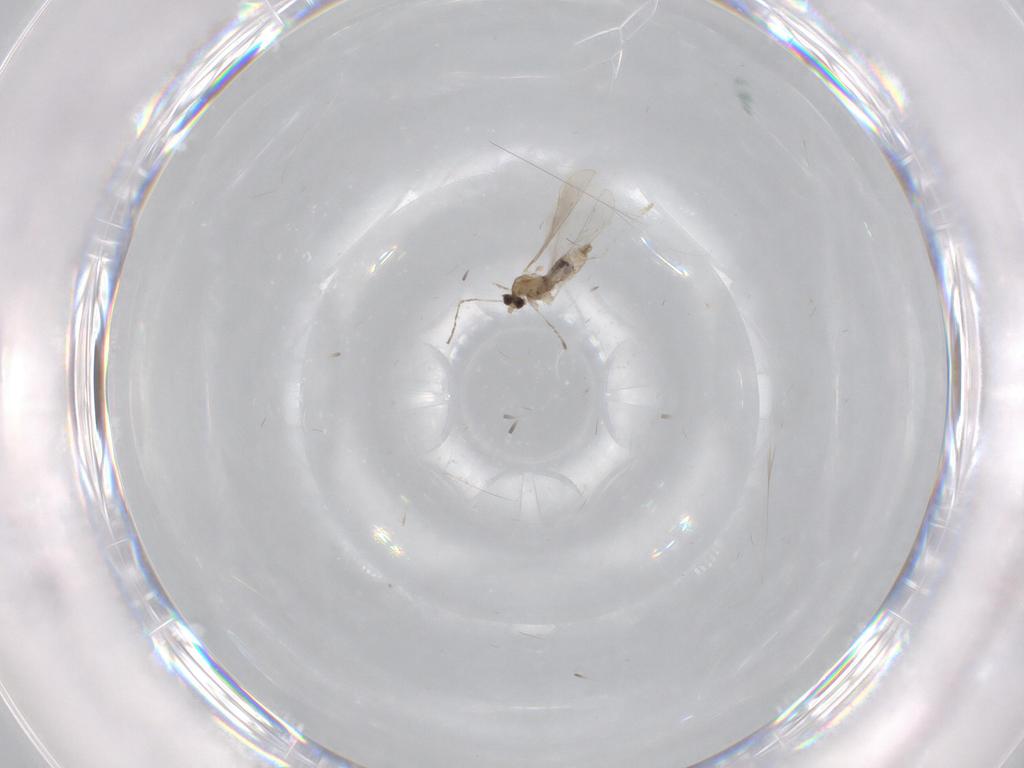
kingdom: Animalia
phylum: Arthropoda
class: Insecta
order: Diptera
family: Cecidomyiidae
